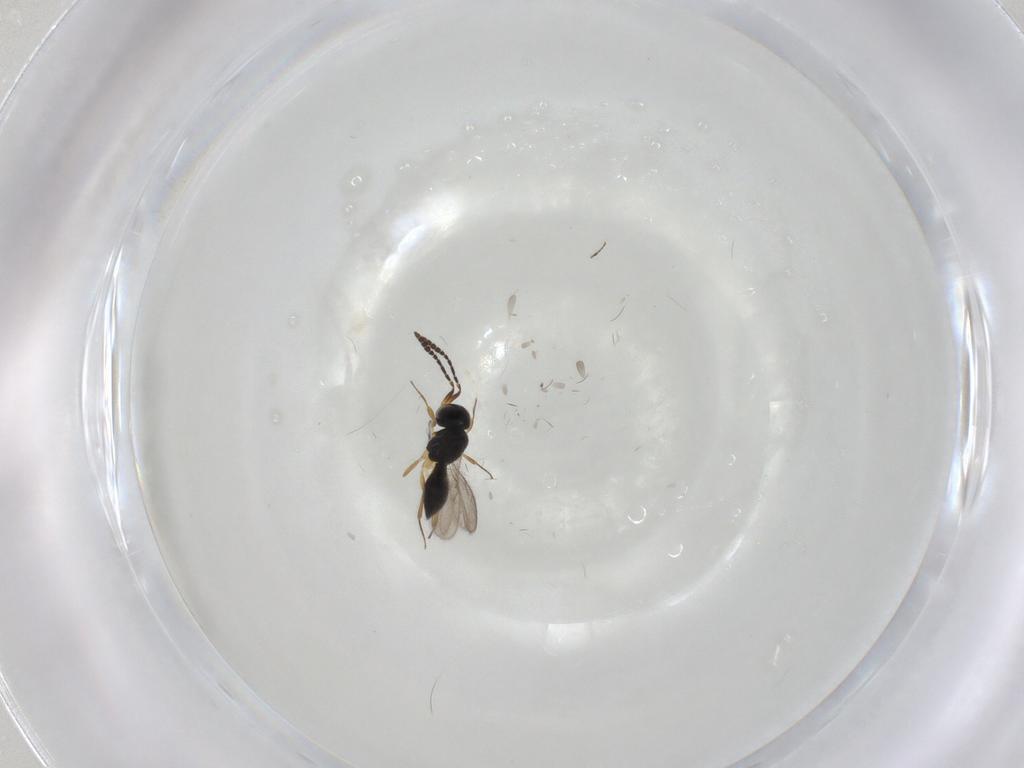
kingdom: Animalia
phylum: Arthropoda
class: Insecta
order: Hymenoptera
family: Scelionidae
